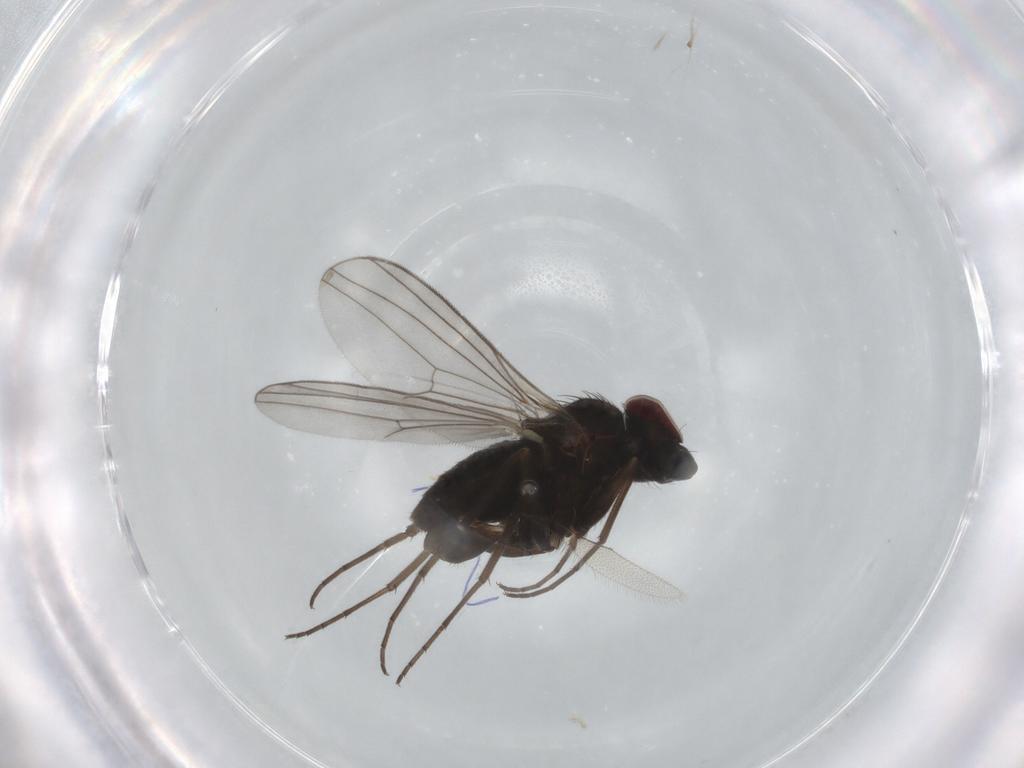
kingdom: Animalia
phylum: Arthropoda
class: Insecta
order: Diptera
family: Dolichopodidae
